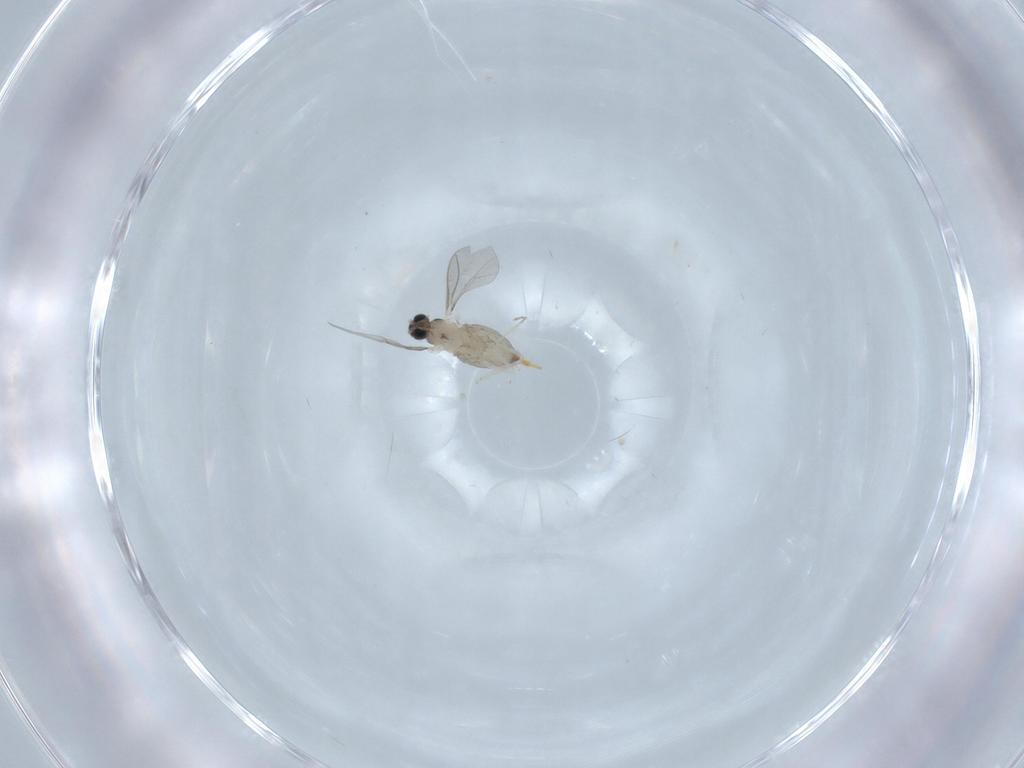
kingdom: Animalia
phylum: Arthropoda
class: Insecta
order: Diptera
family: Cecidomyiidae
